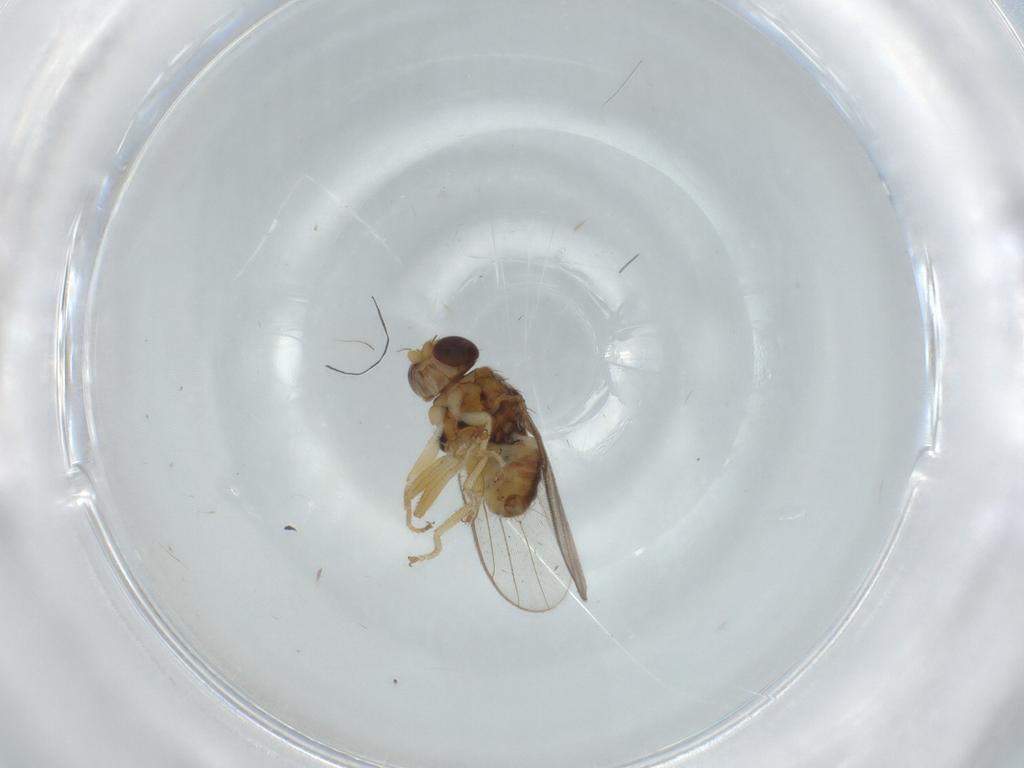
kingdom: Animalia
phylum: Arthropoda
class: Insecta
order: Diptera
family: Chloropidae
